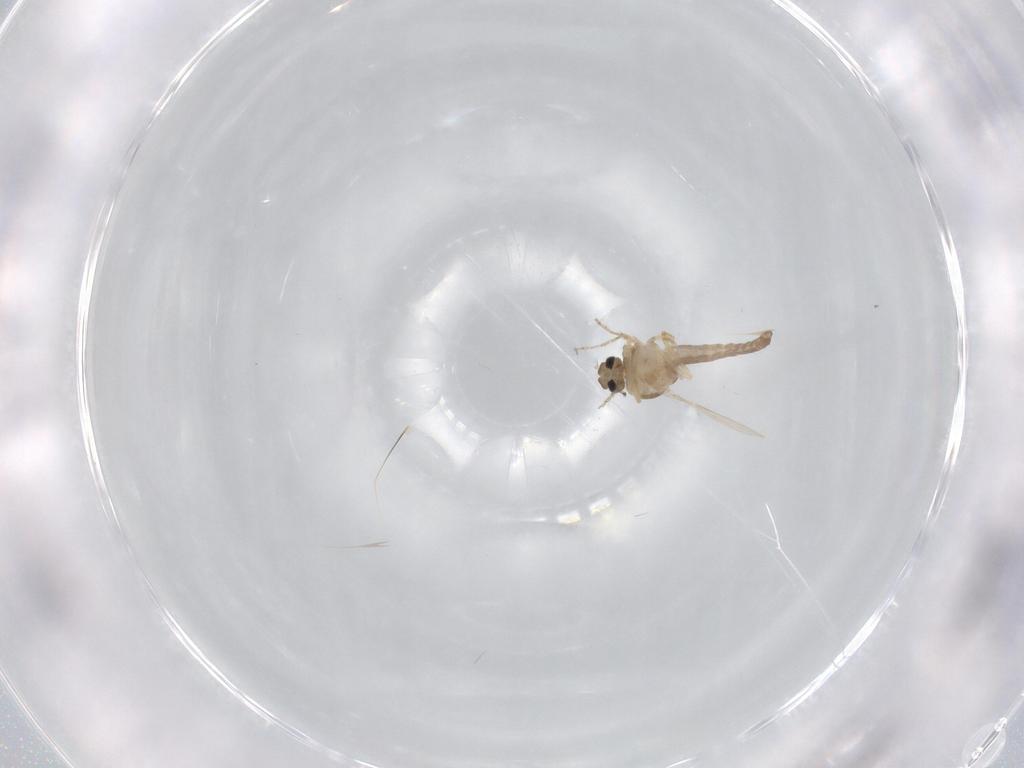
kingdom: Animalia
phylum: Arthropoda
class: Insecta
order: Diptera
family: Ceratopogonidae
